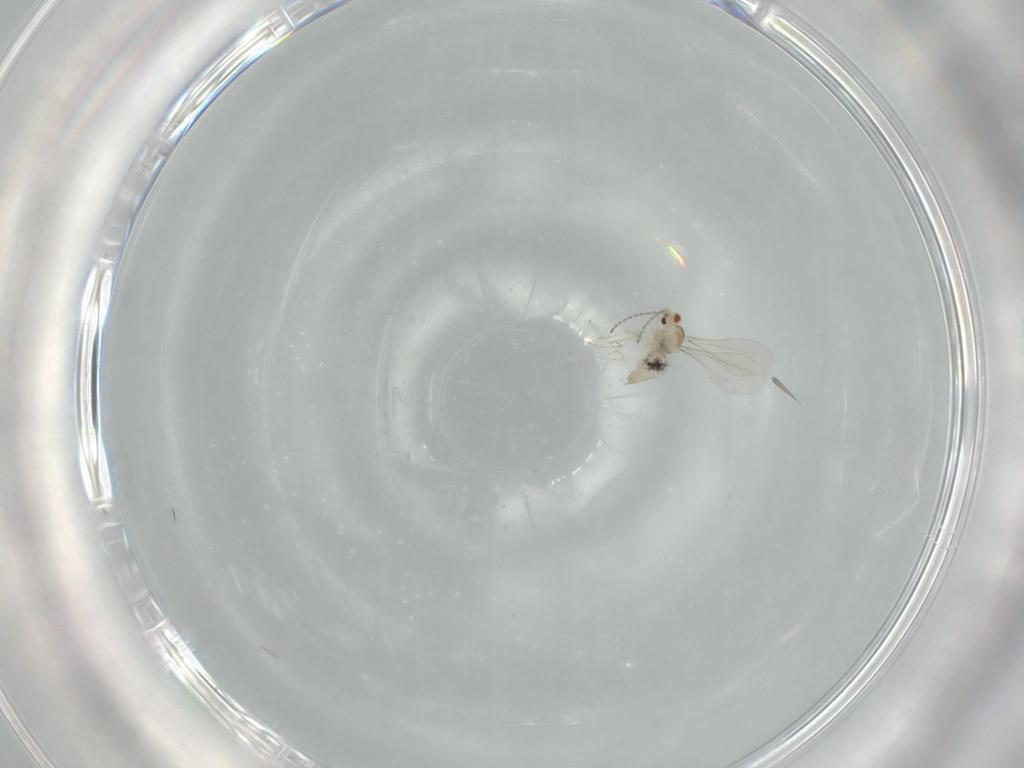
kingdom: Animalia
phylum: Arthropoda
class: Insecta
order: Diptera
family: Cecidomyiidae
